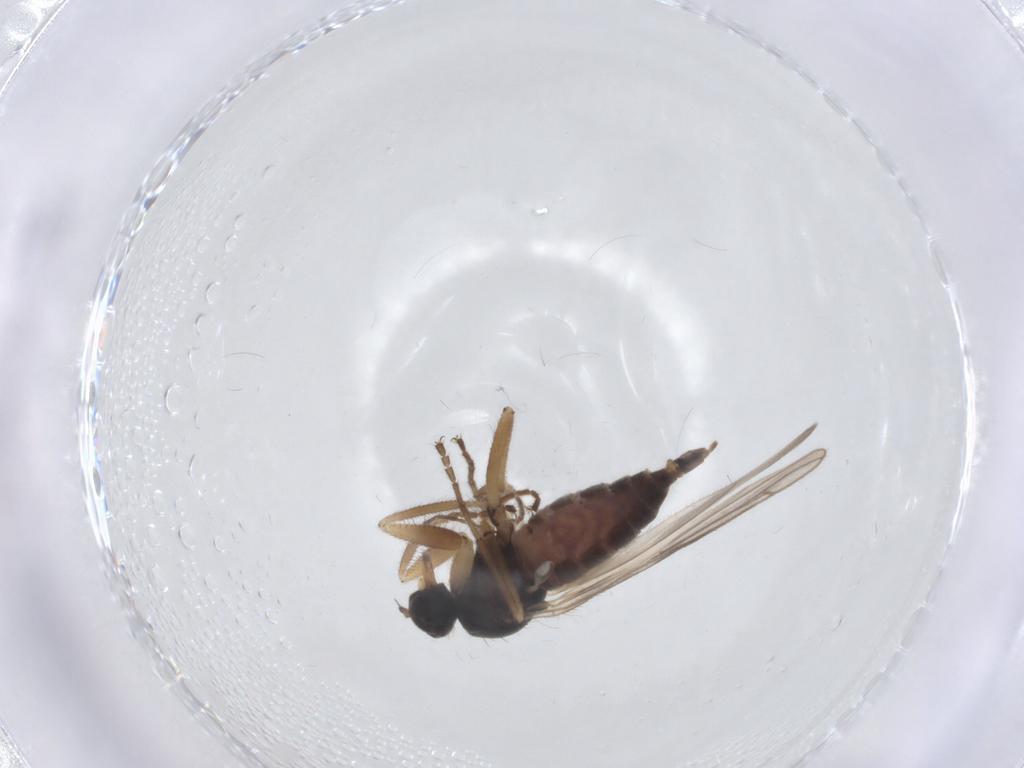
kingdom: Animalia
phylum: Arthropoda
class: Insecta
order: Diptera
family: Hybotidae
